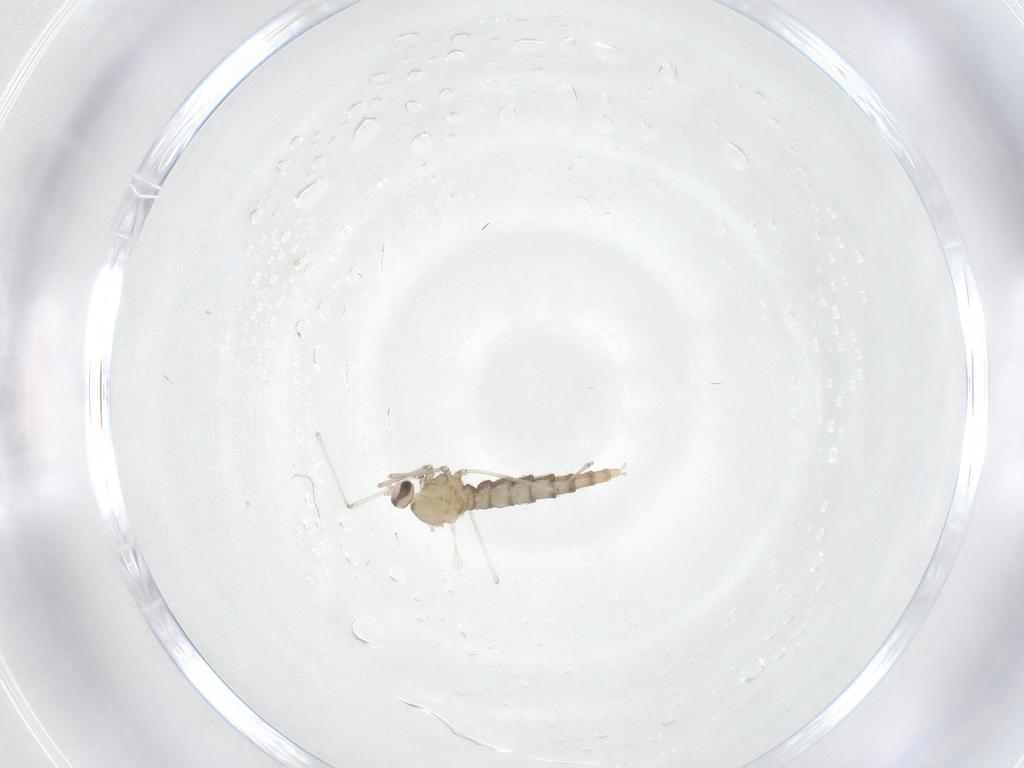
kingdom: Animalia
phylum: Arthropoda
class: Insecta
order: Diptera
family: Cecidomyiidae
